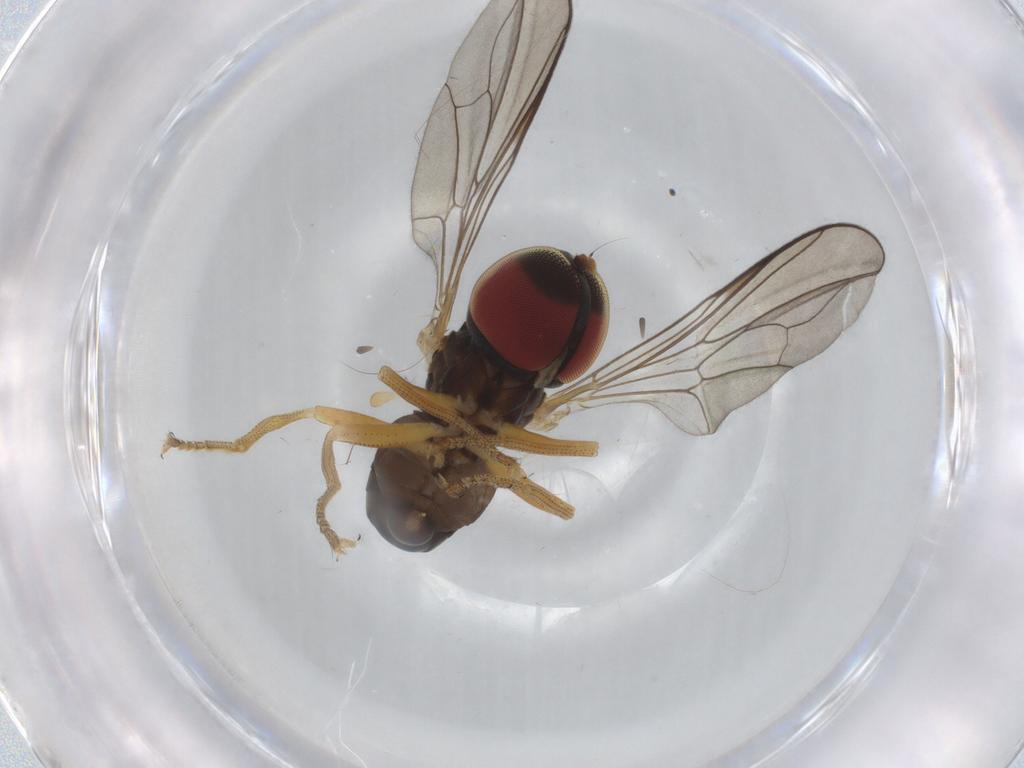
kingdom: Animalia
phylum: Arthropoda
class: Insecta
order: Diptera
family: Pipunculidae
